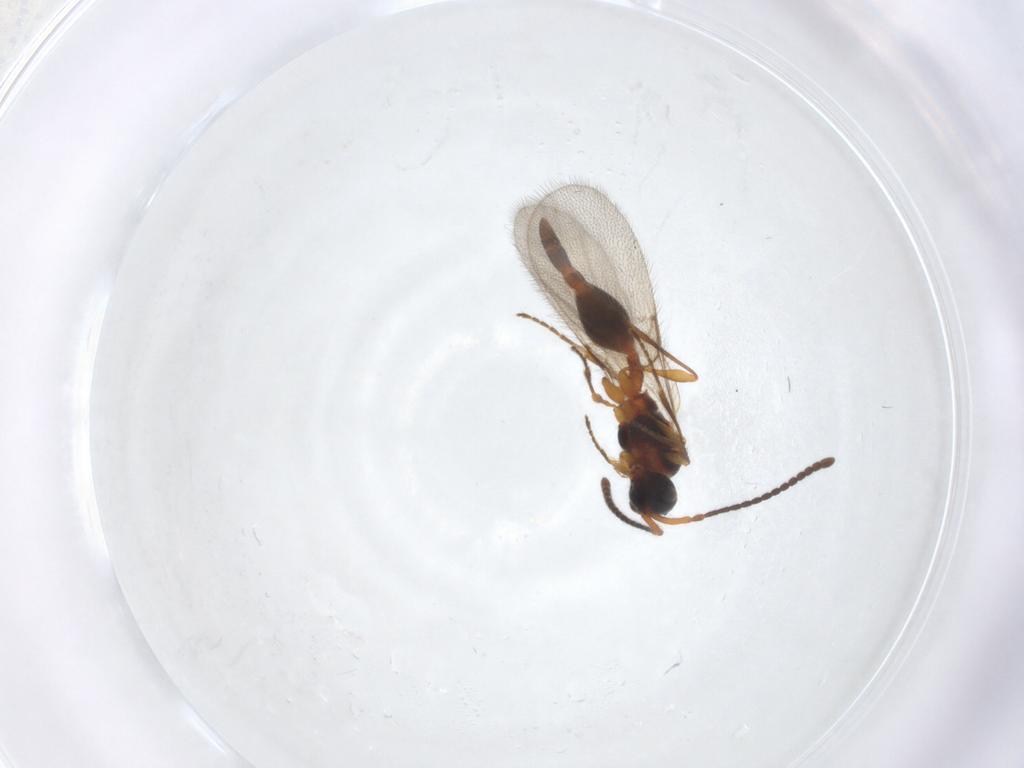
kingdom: Animalia
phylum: Arthropoda
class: Insecta
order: Hymenoptera
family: Diapriidae
